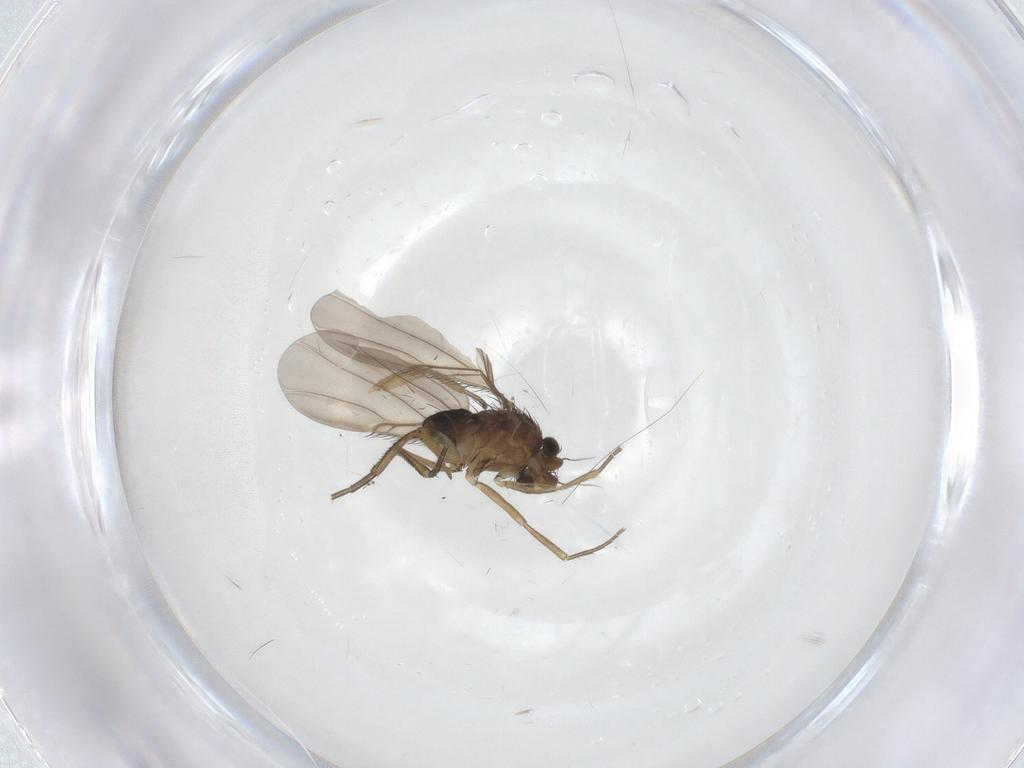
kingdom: Animalia
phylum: Arthropoda
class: Insecta
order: Diptera
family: Phoridae
